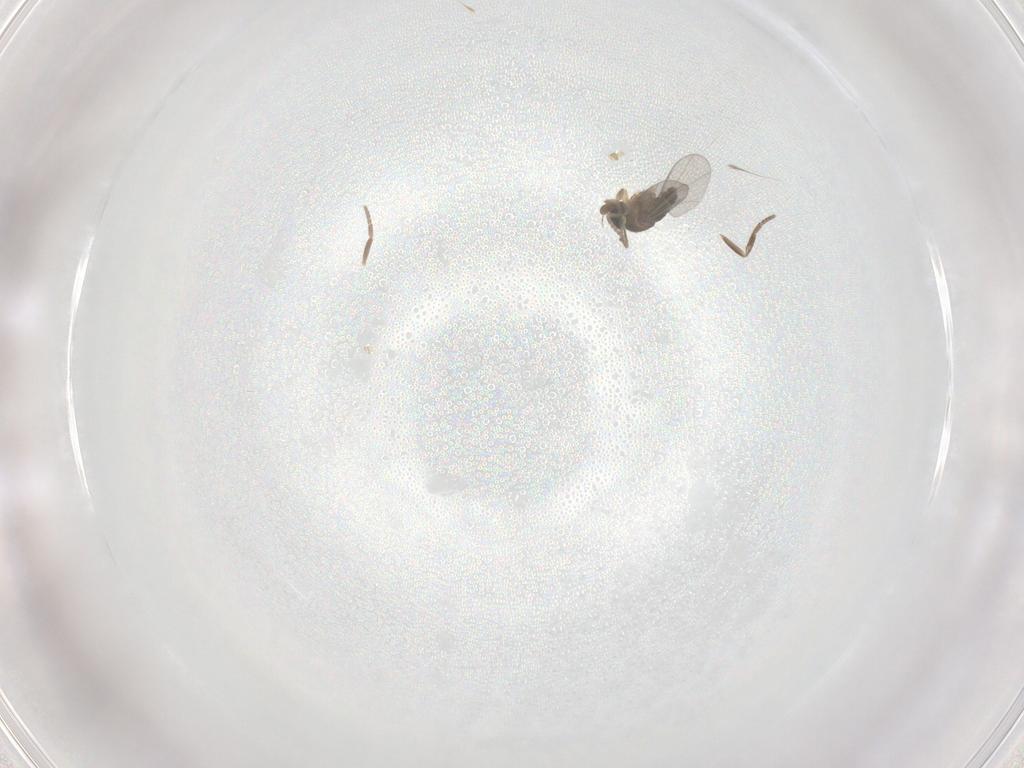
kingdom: Animalia
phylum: Arthropoda
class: Insecta
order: Diptera
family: Phoridae
